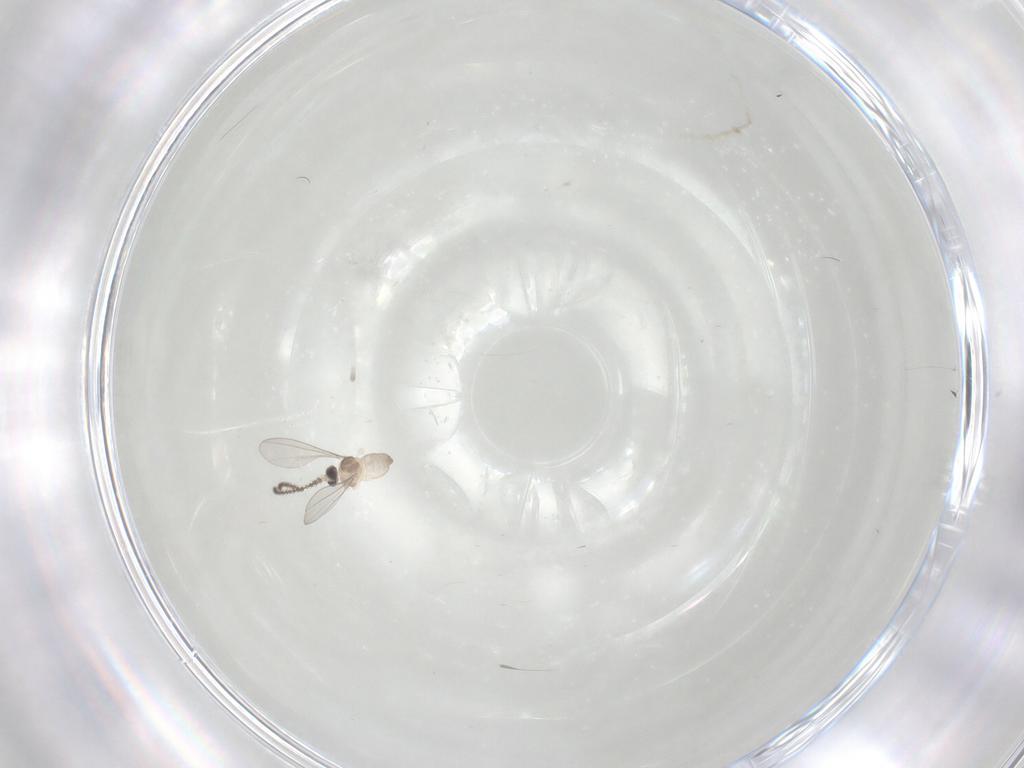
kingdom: Animalia
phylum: Arthropoda
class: Insecta
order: Diptera
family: Cecidomyiidae
